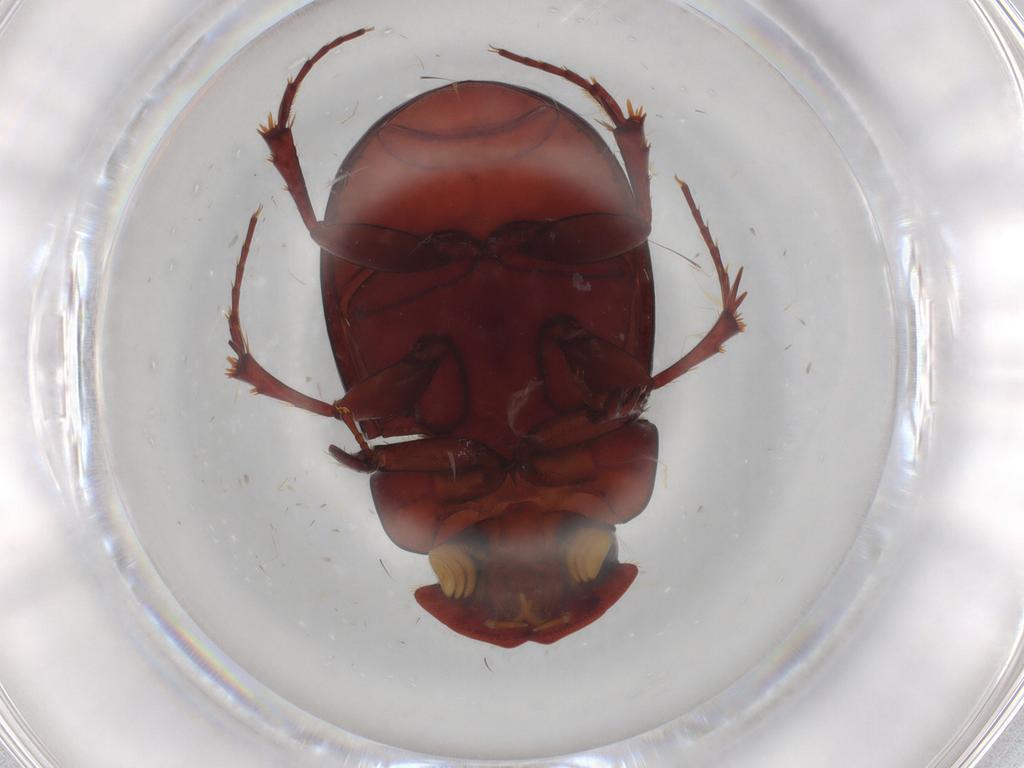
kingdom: Animalia
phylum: Arthropoda
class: Insecta
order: Coleoptera
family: Scarabaeidae
